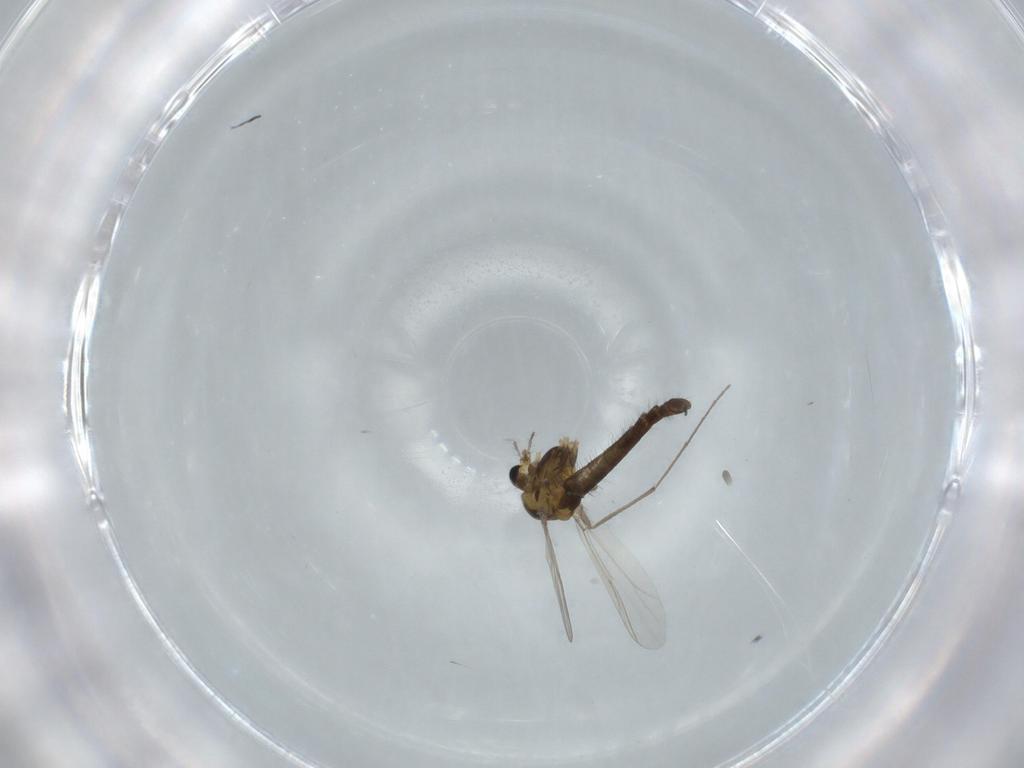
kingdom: Animalia
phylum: Arthropoda
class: Insecta
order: Diptera
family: Chironomidae
